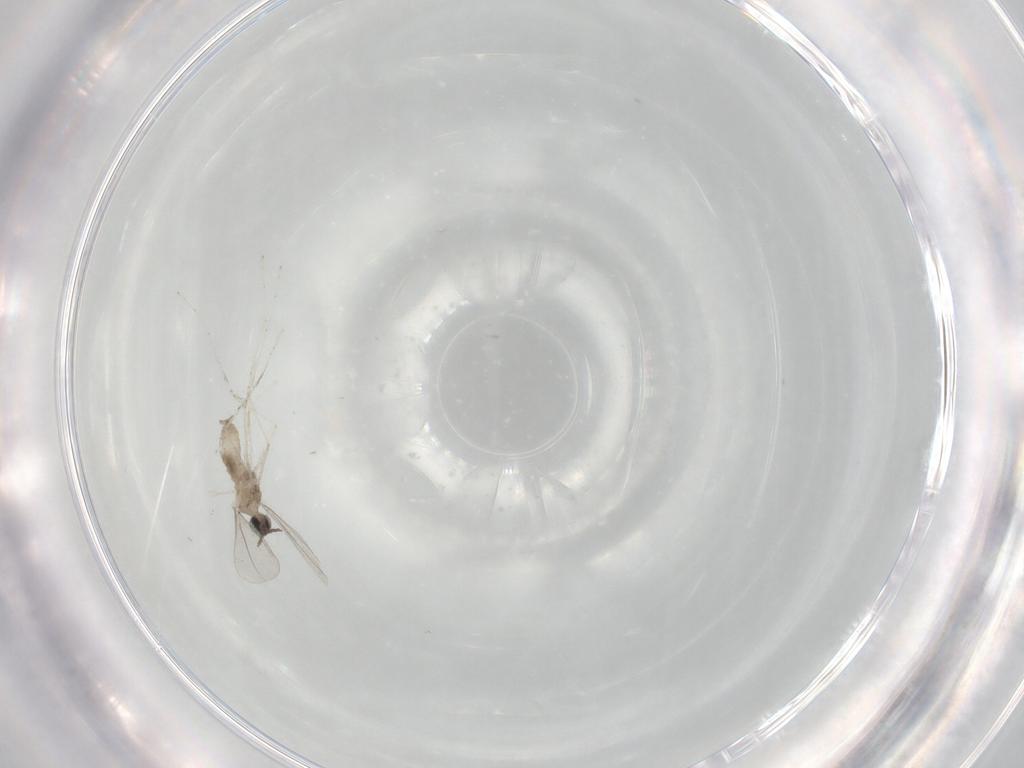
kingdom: Animalia
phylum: Arthropoda
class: Insecta
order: Diptera
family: Cecidomyiidae
